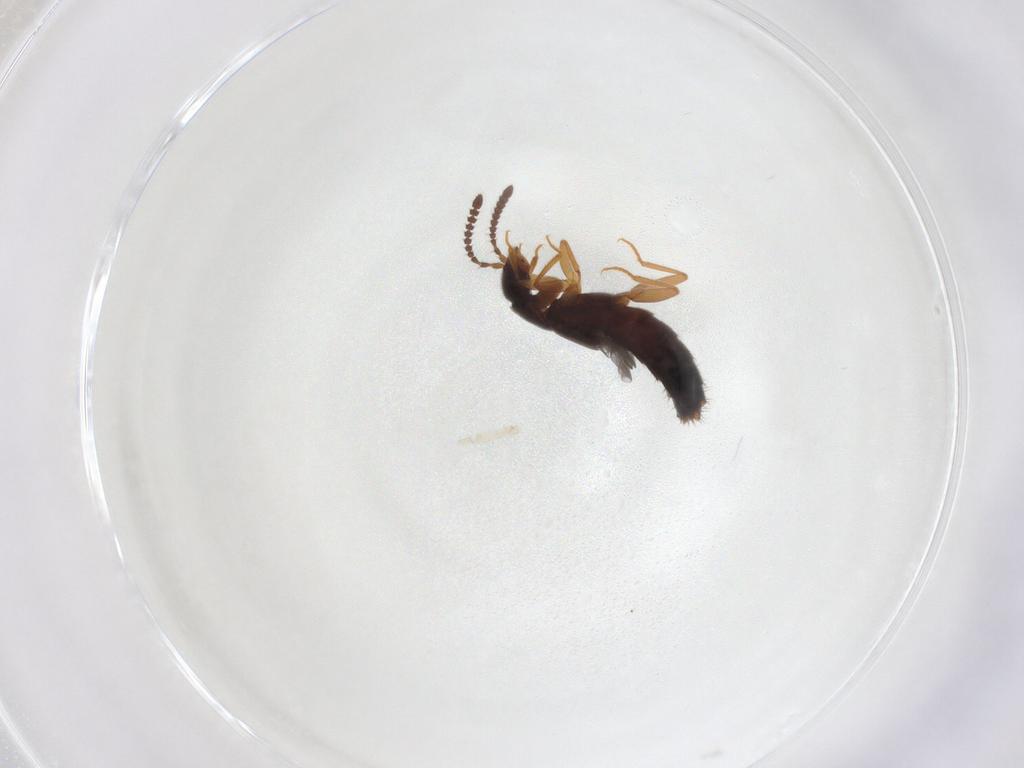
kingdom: Animalia
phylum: Arthropoda
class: Insecta
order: Coleoptera
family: Staphylinidae
